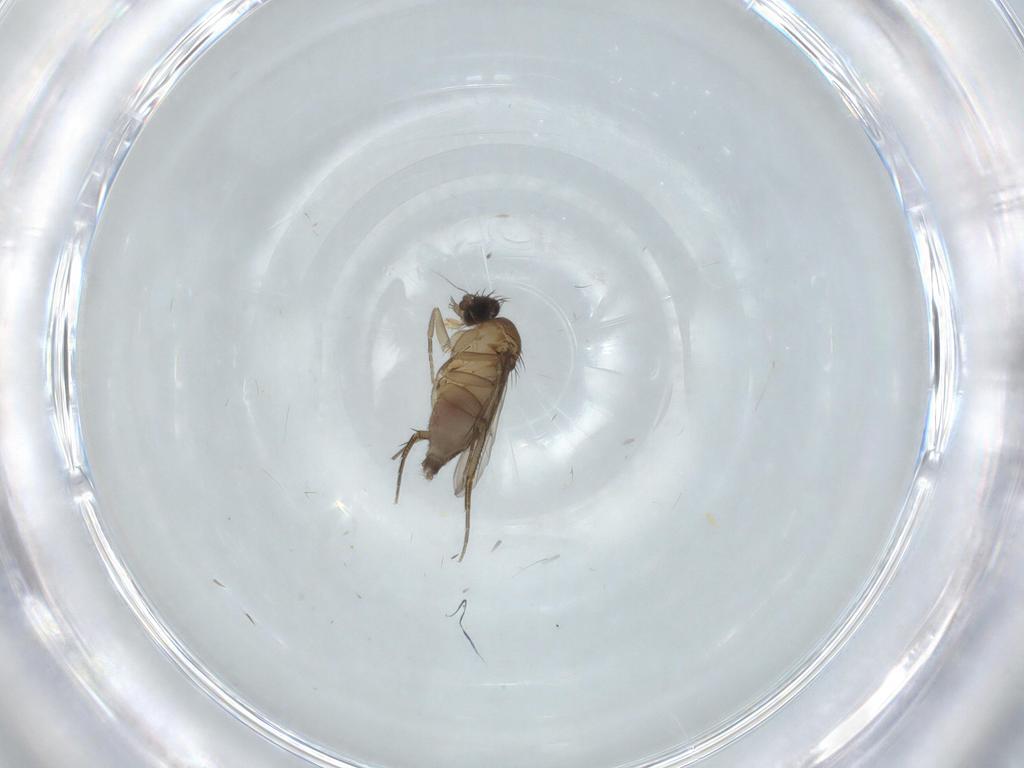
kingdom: Animalia
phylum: Arthropoda
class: Insecta
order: Diptera
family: Phoridae
